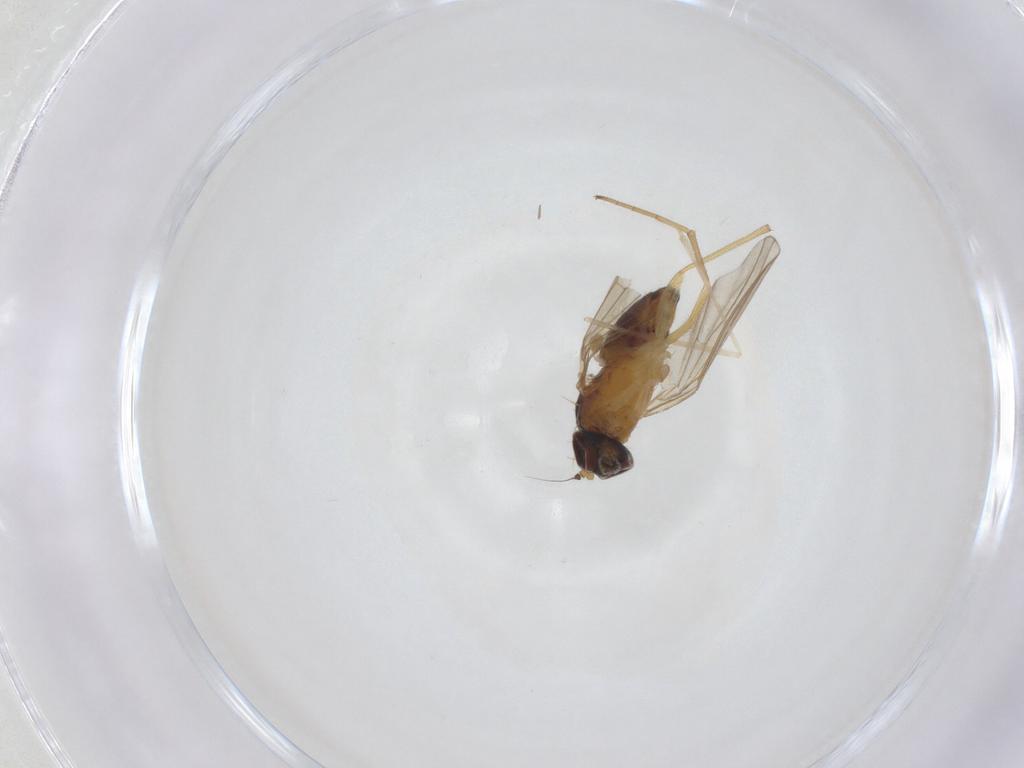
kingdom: Animalia
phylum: Arthropoda
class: Insecta
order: Diptera
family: Dolichopodidae
